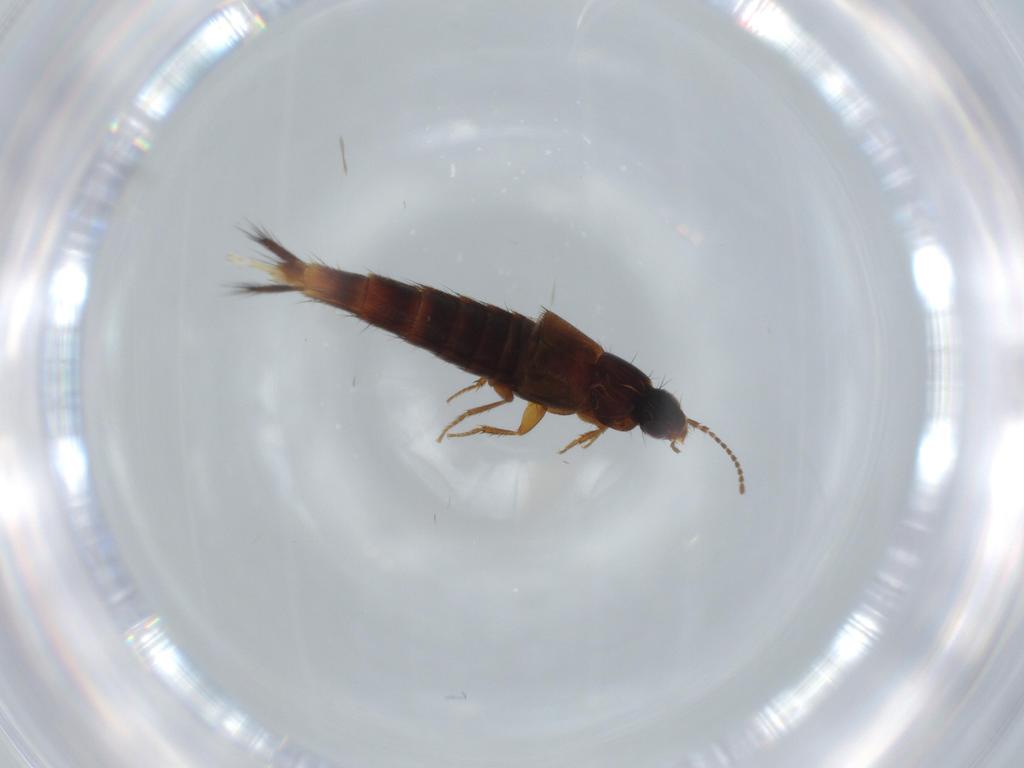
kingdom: Animalia
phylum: Arthropoda
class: Insecta
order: Coleoptera
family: Staphylinidae
